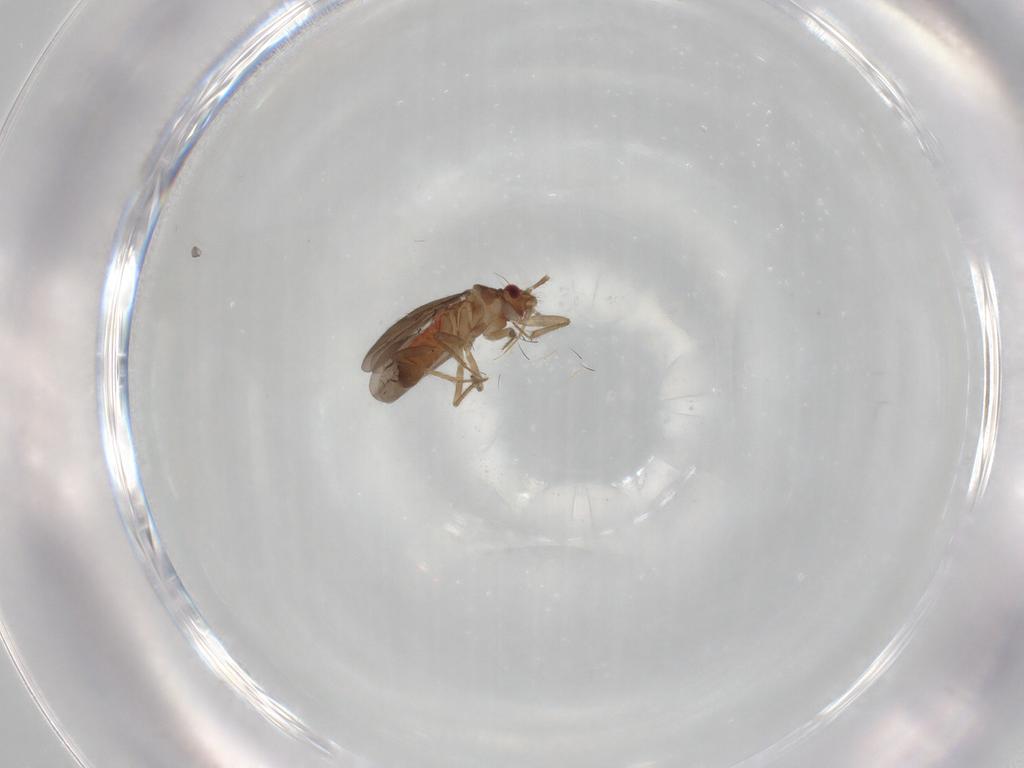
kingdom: Animalia
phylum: Arthropoda
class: Insecta
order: Hemiptera
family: Ceratocombidae
